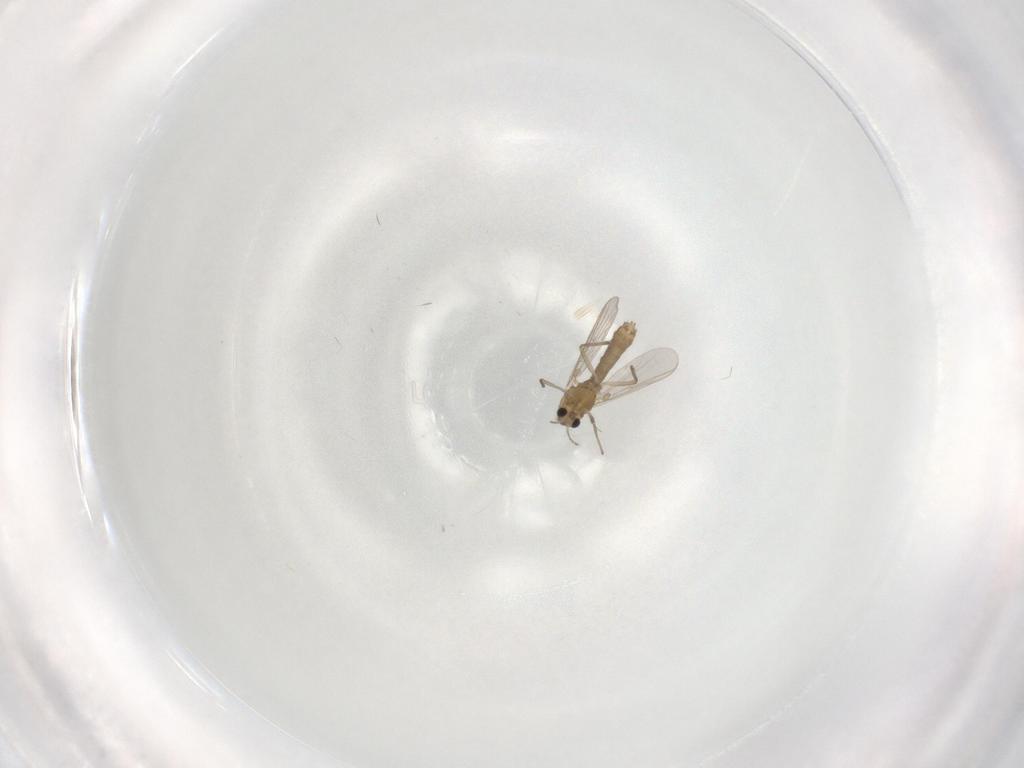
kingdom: Animalia
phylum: Arthropoda
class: Insecta
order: Diptera
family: Chironomidae
